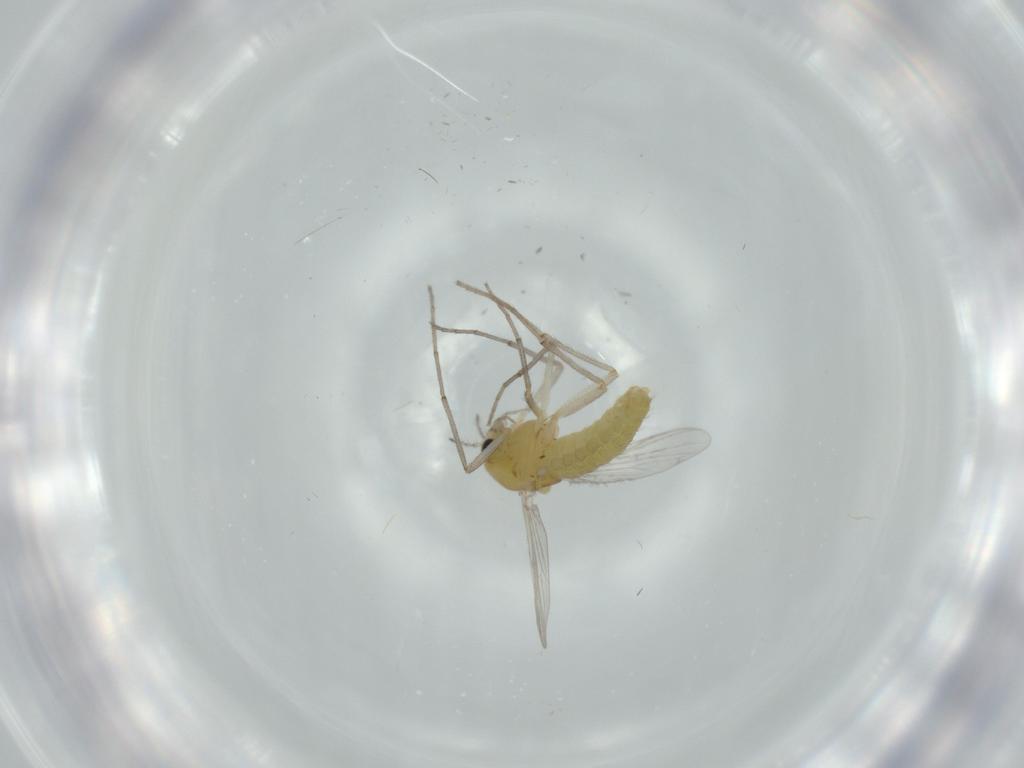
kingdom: Animalia
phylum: Arthropoda
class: Insecta
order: Diptera
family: Chironomidae
